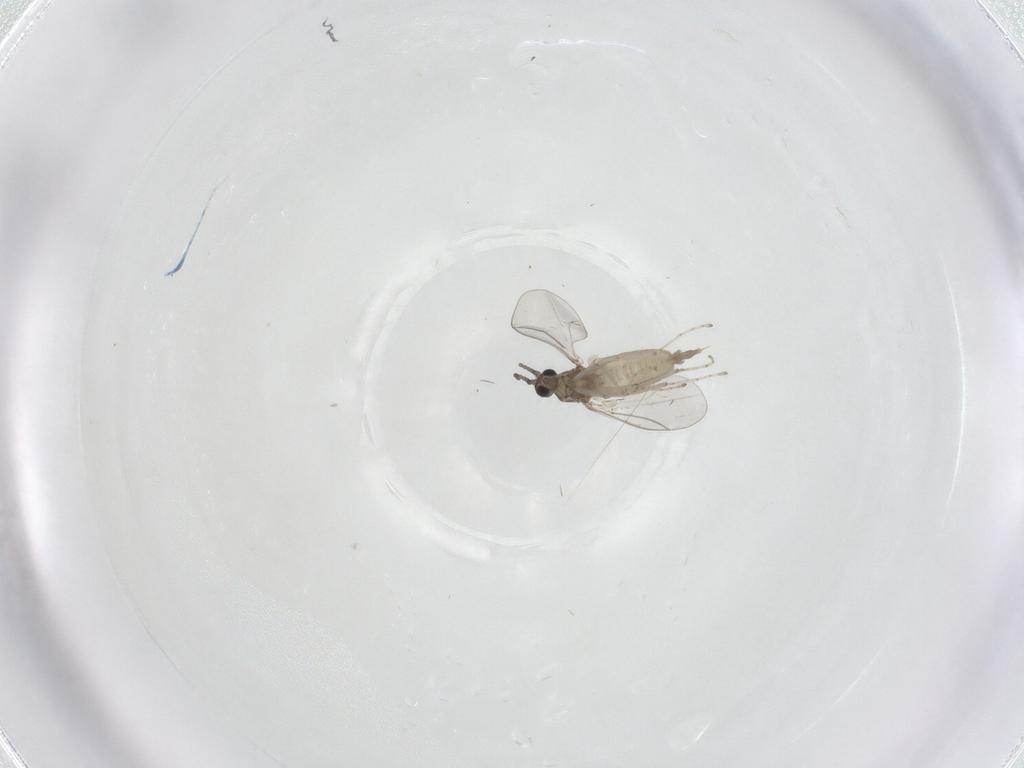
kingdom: Animalia
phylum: Arthropoda
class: Insecta
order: Diptera
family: Cecidomyiidae
